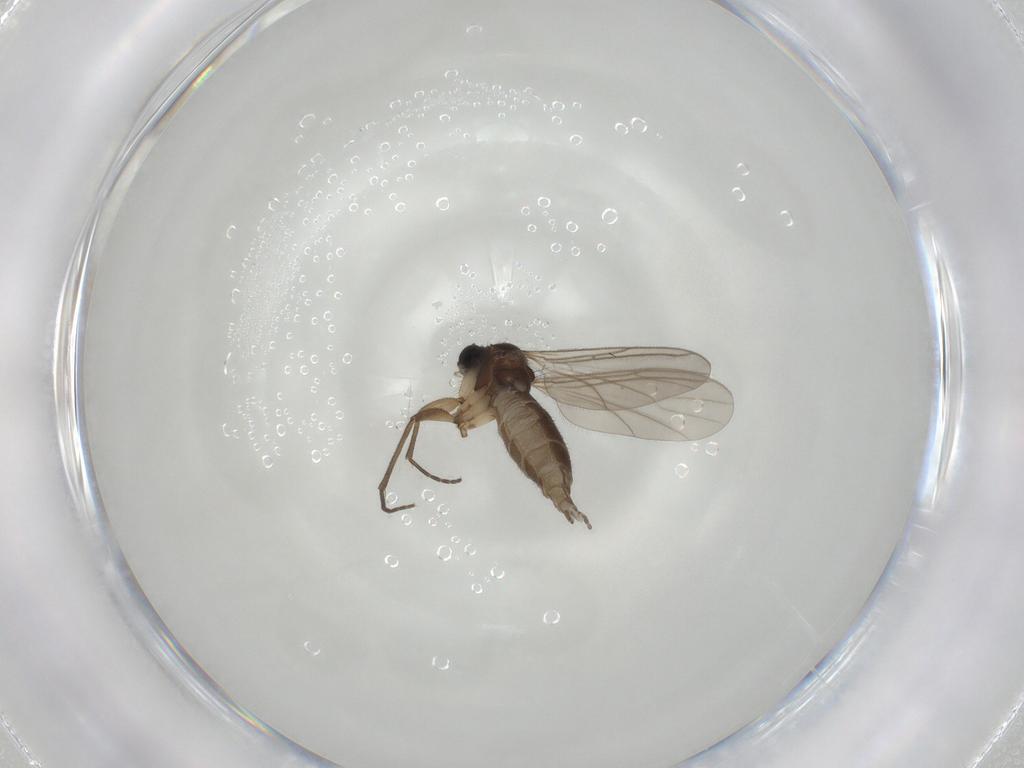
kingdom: Animalia
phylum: Arthropoda
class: Insecta
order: Diptera
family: Sciaridae
